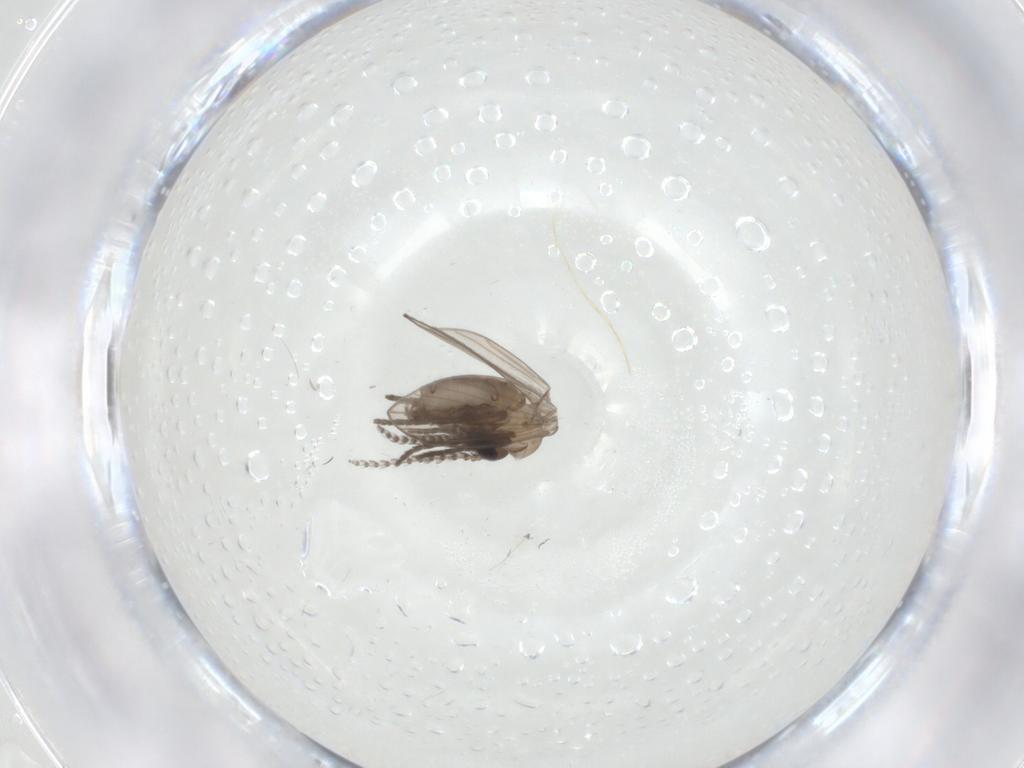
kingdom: Animalia
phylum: Arthropoda
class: Insecta
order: Diptera
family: Psychodidae
